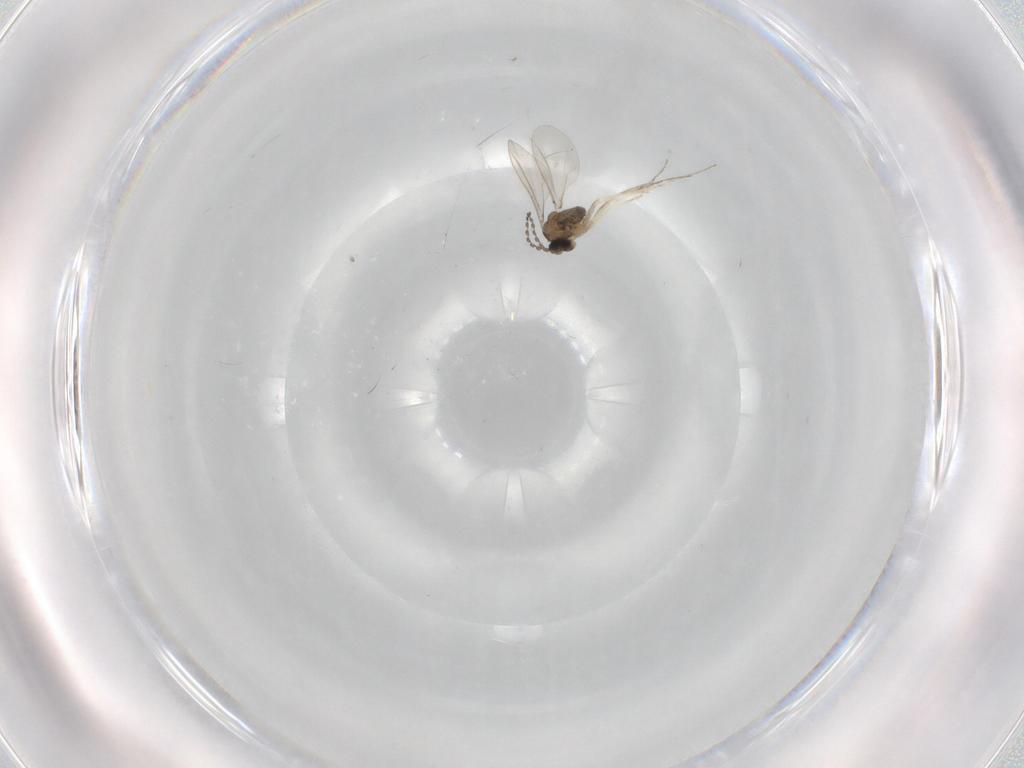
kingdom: Animalia
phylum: Arthropoda
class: Insecta
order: Diptera
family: Cecidomyiidae
